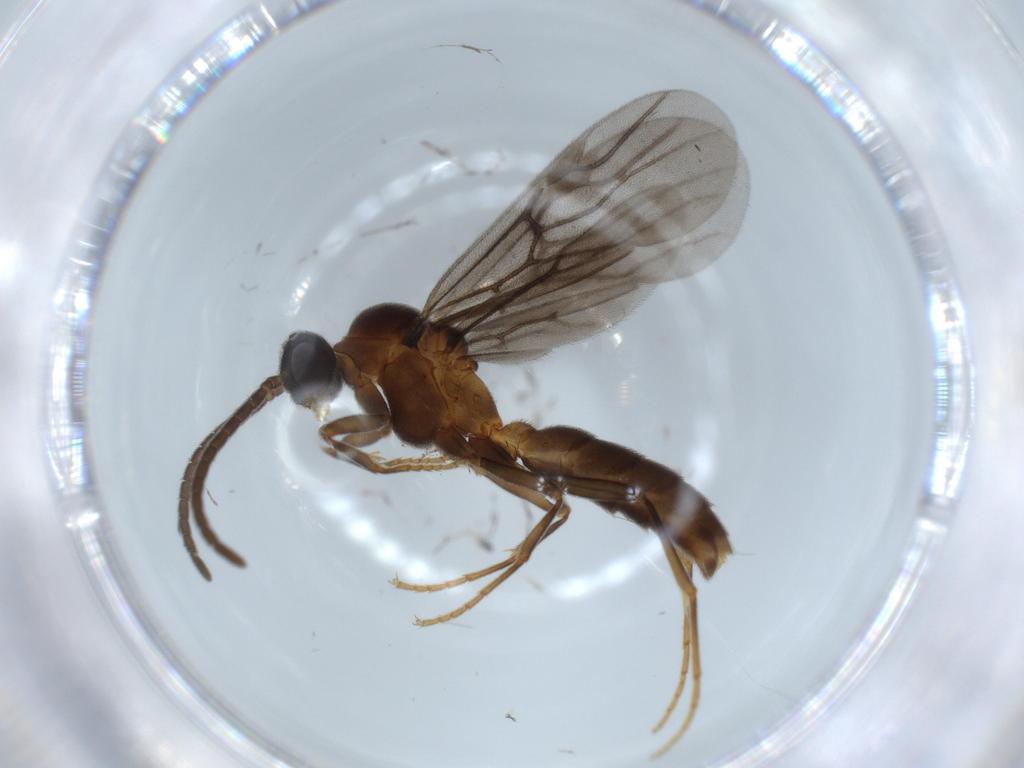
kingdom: Animalia
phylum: Arthropoda
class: Insecta
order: Hymenoptera
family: Formicidae
